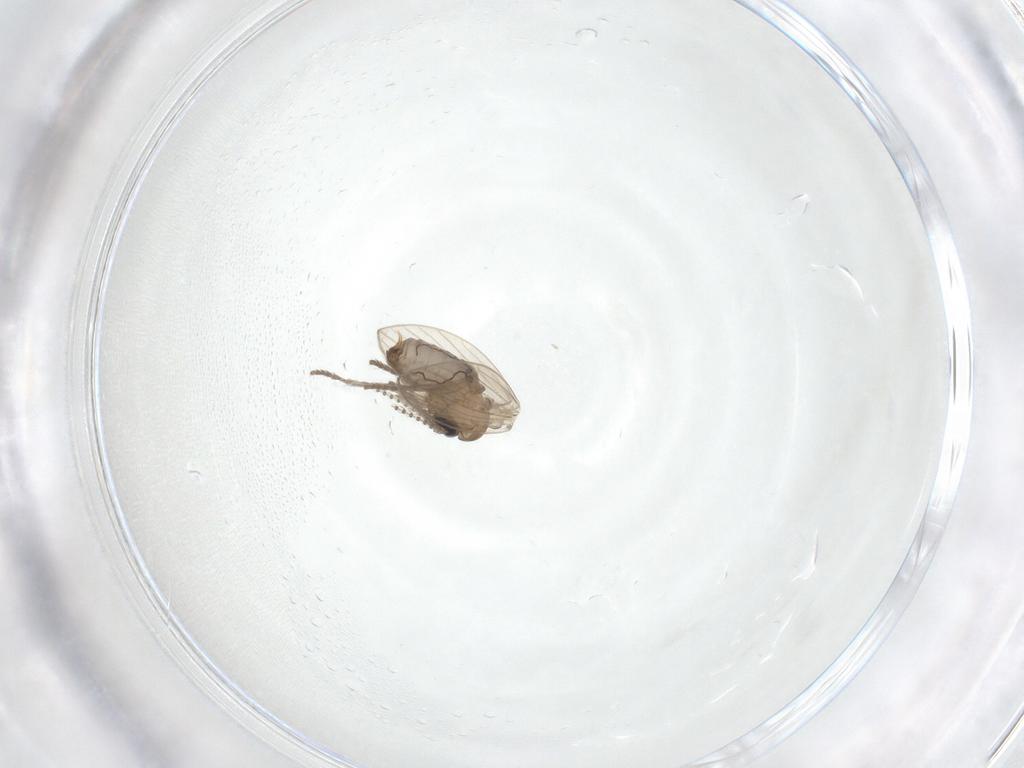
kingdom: Animalia
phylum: Arthropoda
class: Insecta
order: Diptera
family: Psychodidae
